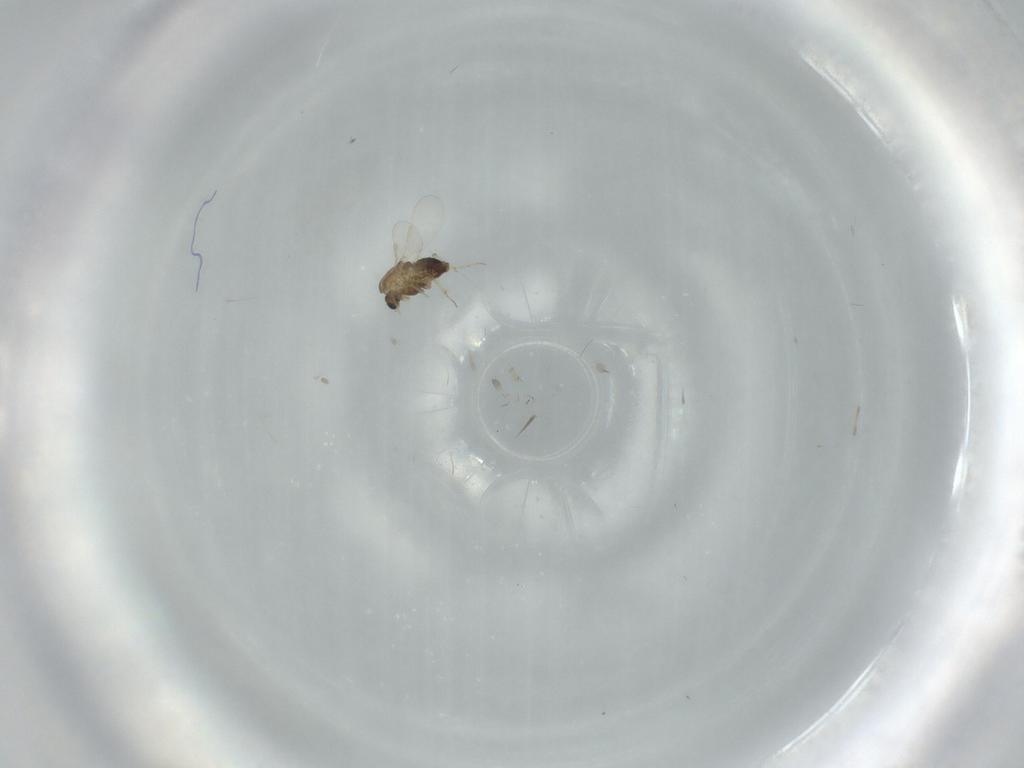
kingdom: Animalia
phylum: Arthropoda
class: Insecta
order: Diptera
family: Chironomidae
